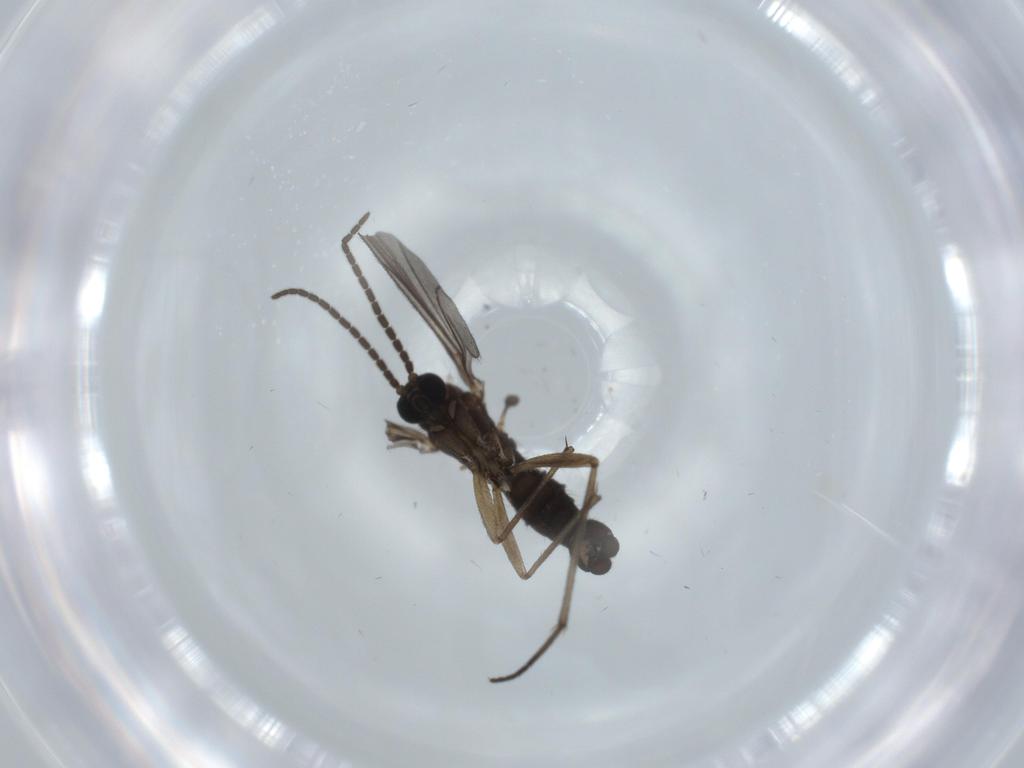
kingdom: Animalia
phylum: Arthropoda
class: Insecta
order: Diptera
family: Sciaridae
